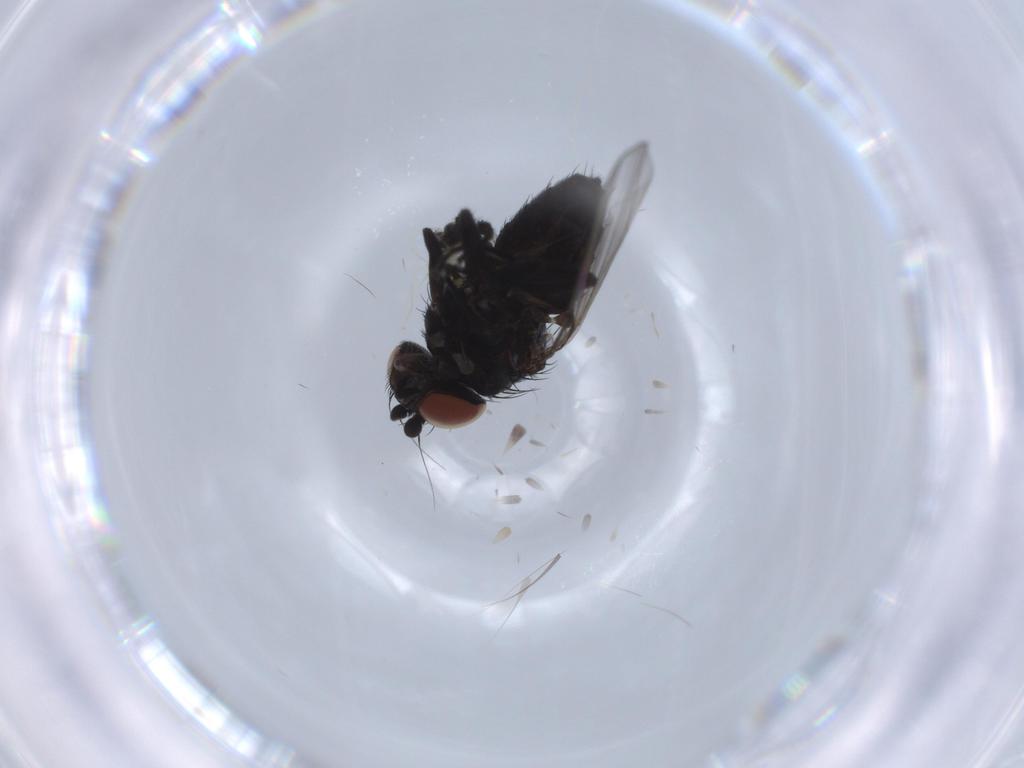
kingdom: Animalia
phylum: Arthropoda
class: Insecta
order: Diptera
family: Milichiidae
